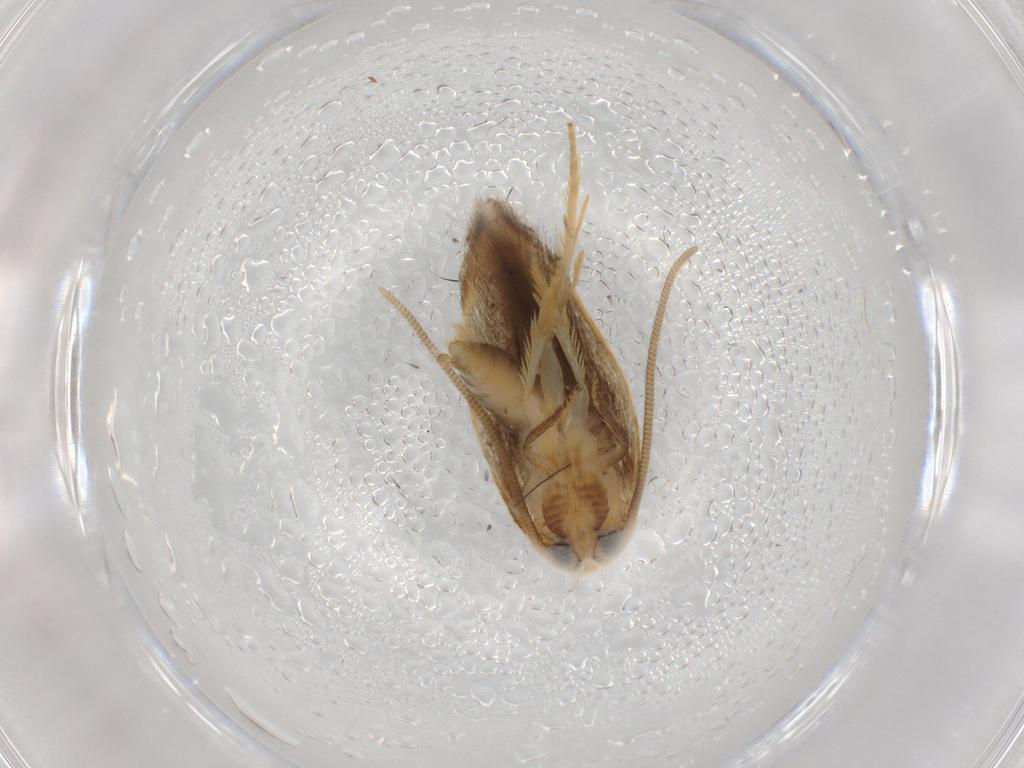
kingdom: Animalia
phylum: Arthropoda
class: Insecta
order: Lepidoptera
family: Opostegidae
